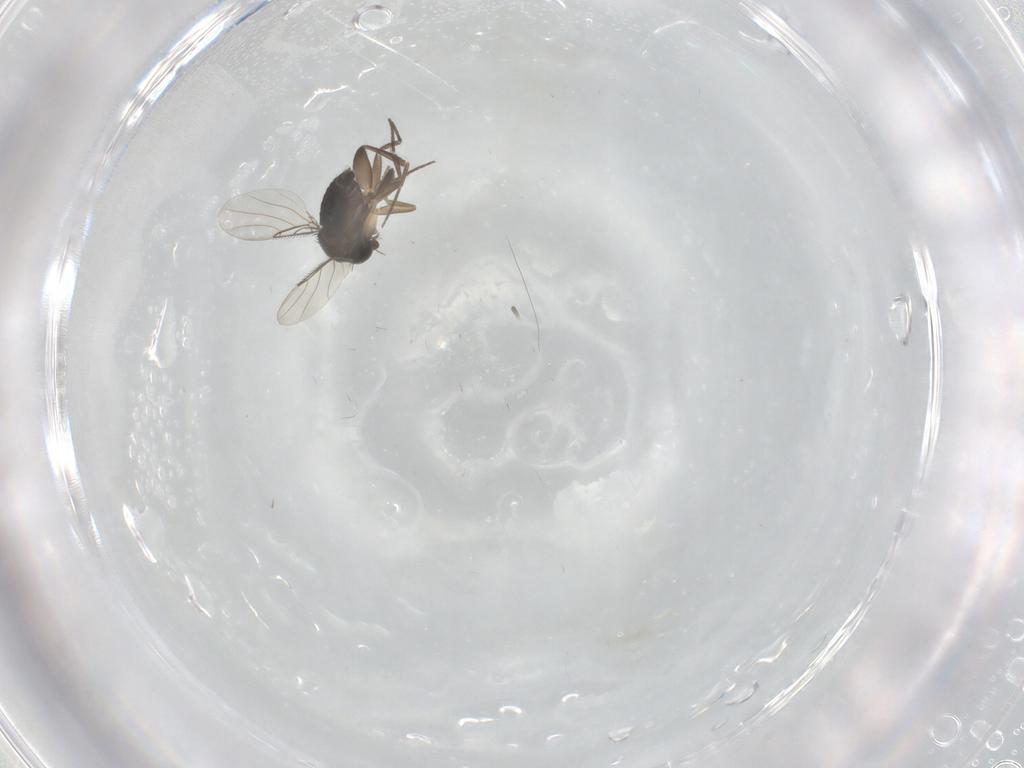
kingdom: Animalia
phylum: Arthropoda
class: Insecta
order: Diptera
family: Phoridae
